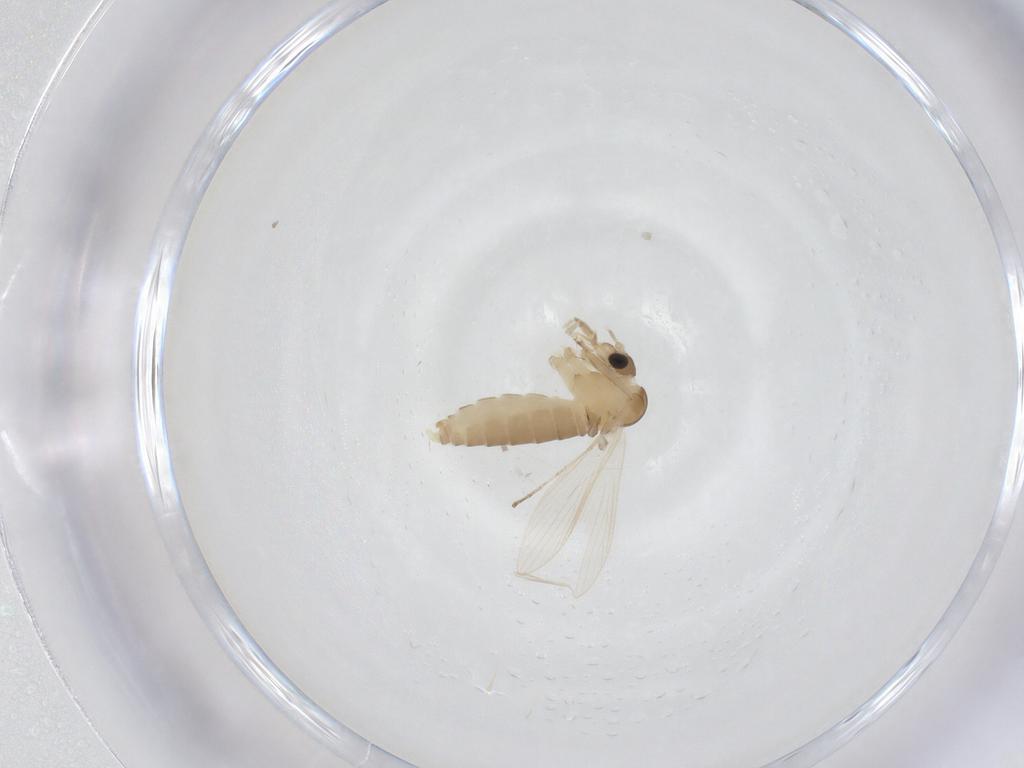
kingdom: Animalia
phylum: Arthropoda
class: Insecta
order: Diptera
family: Psychodidae
